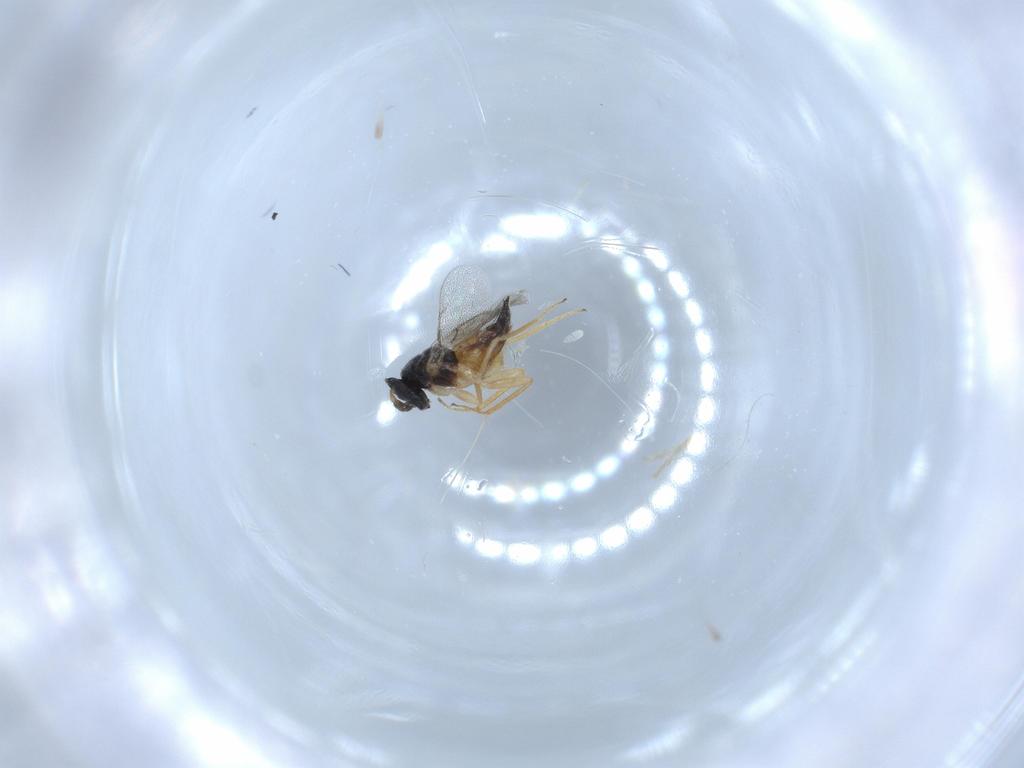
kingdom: Animalia
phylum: Arthropoda
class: Insecta
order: Hymenoptera
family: Eulophidae
